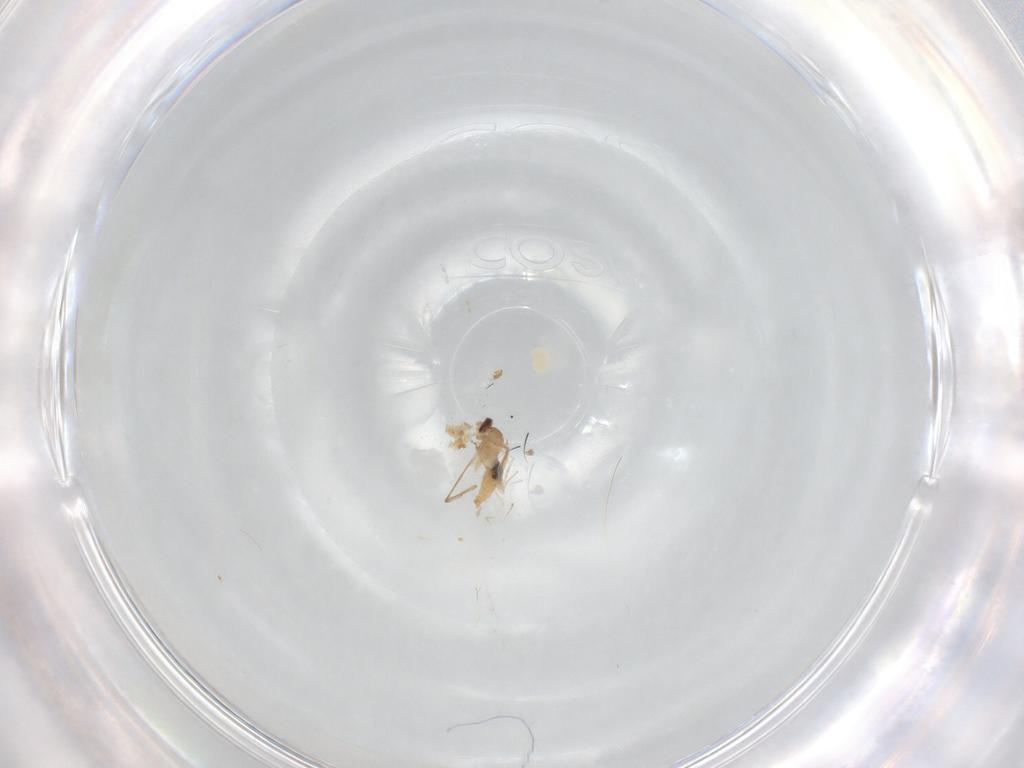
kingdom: Animalia
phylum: Arthropoda
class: Insecta
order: Diptera
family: Glossinidae
